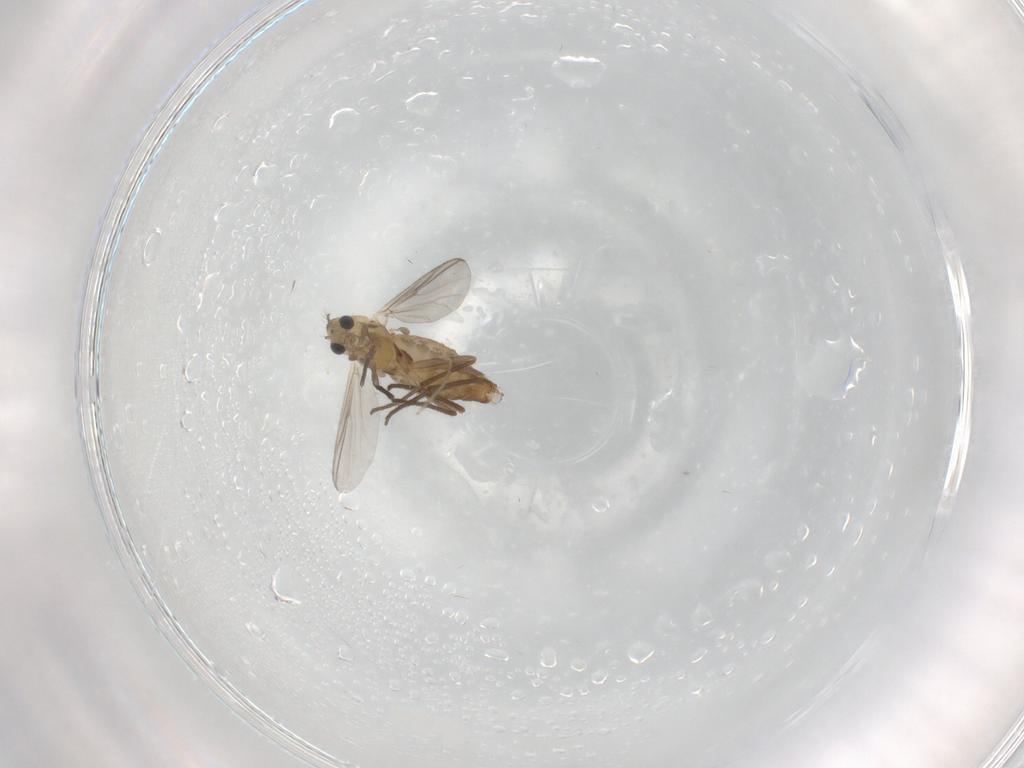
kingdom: Animalia
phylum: Arthropoda
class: Insecta
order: Diptera
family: Chironomidae
